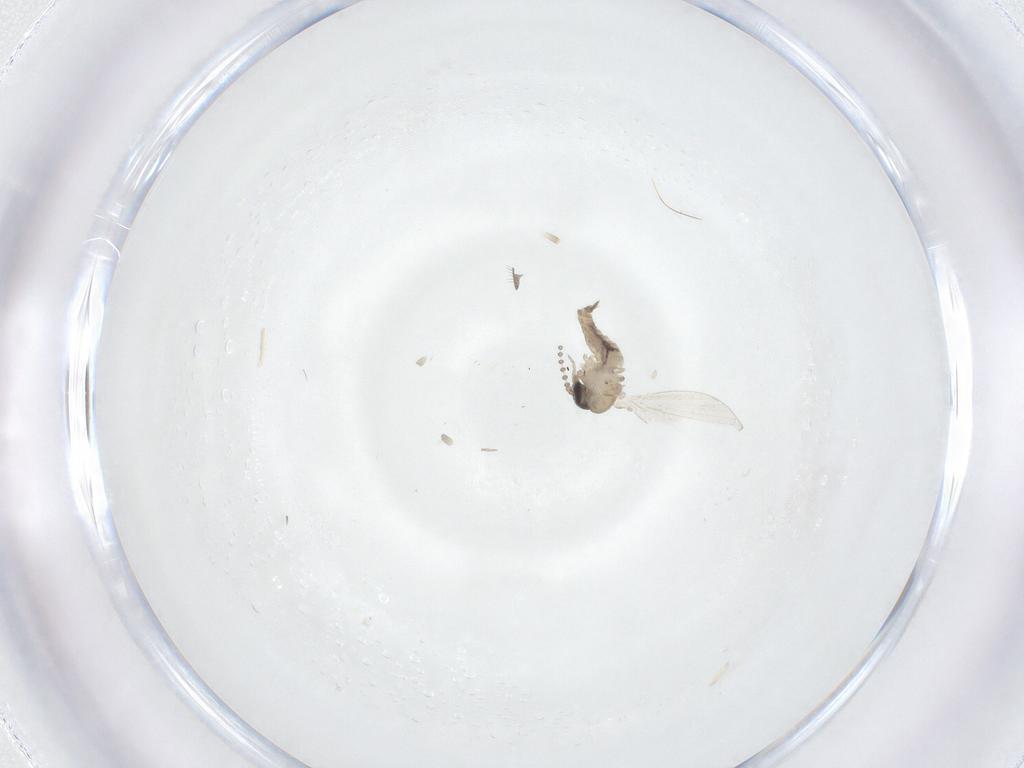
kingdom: Animalia
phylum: Arthropoda
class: Insecta
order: Diptera
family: Psychodidae
